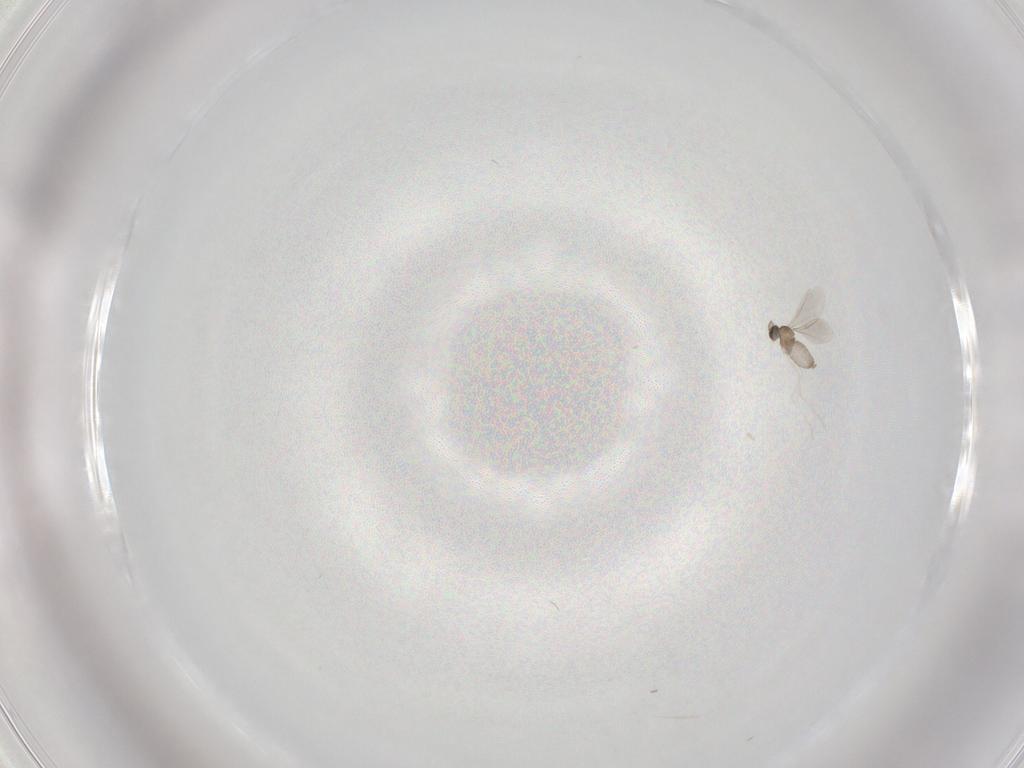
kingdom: Animalia
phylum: Arthropoda
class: Insecta
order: Diptera
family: Cecidomyiidae
